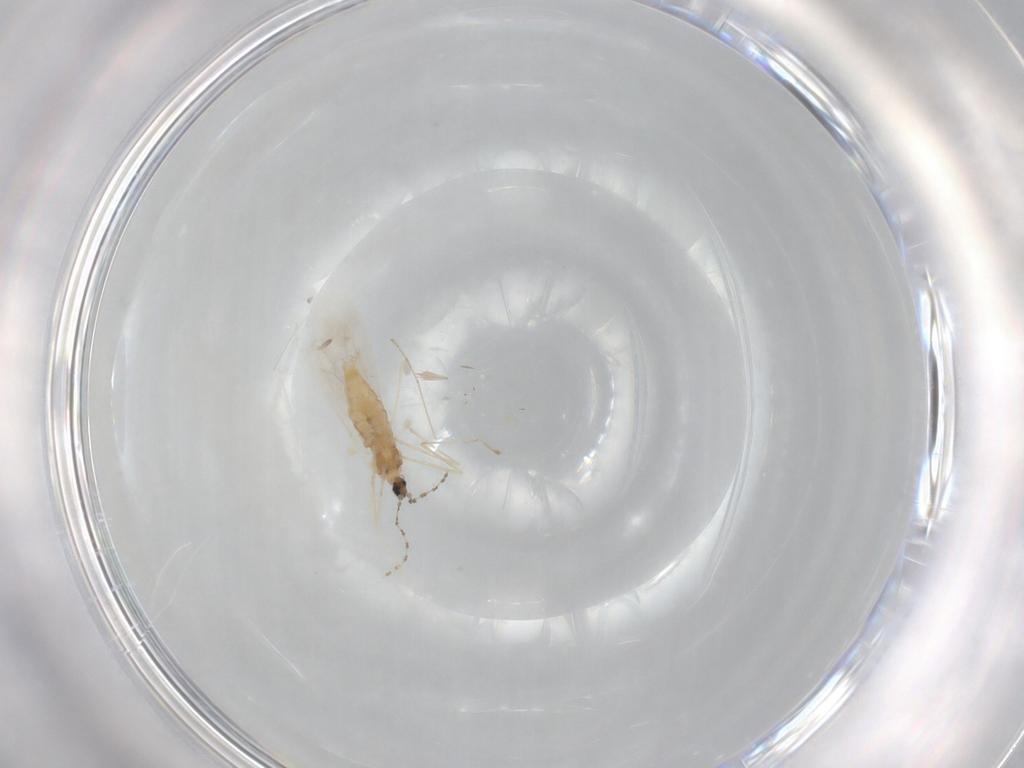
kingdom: Animalia
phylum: Arthropoda
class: Insecta
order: Diptera
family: Cecidomyiidae
